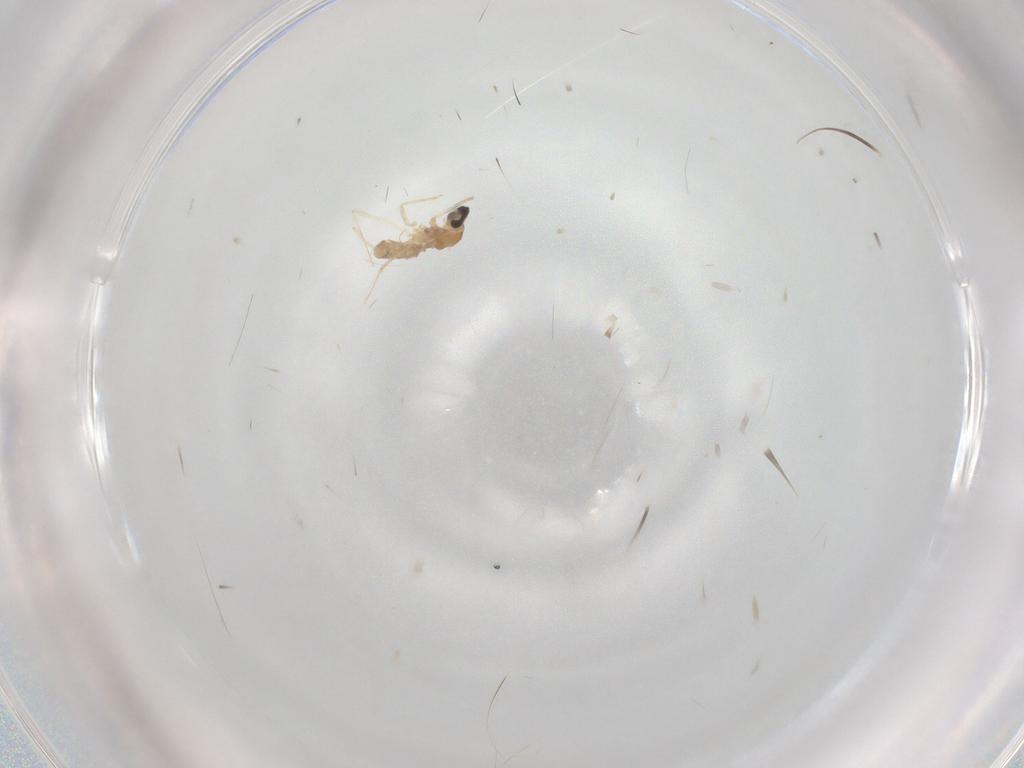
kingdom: Animalia
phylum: Arthropoda
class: Insecta
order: Diptera
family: Cecidomyiidae
